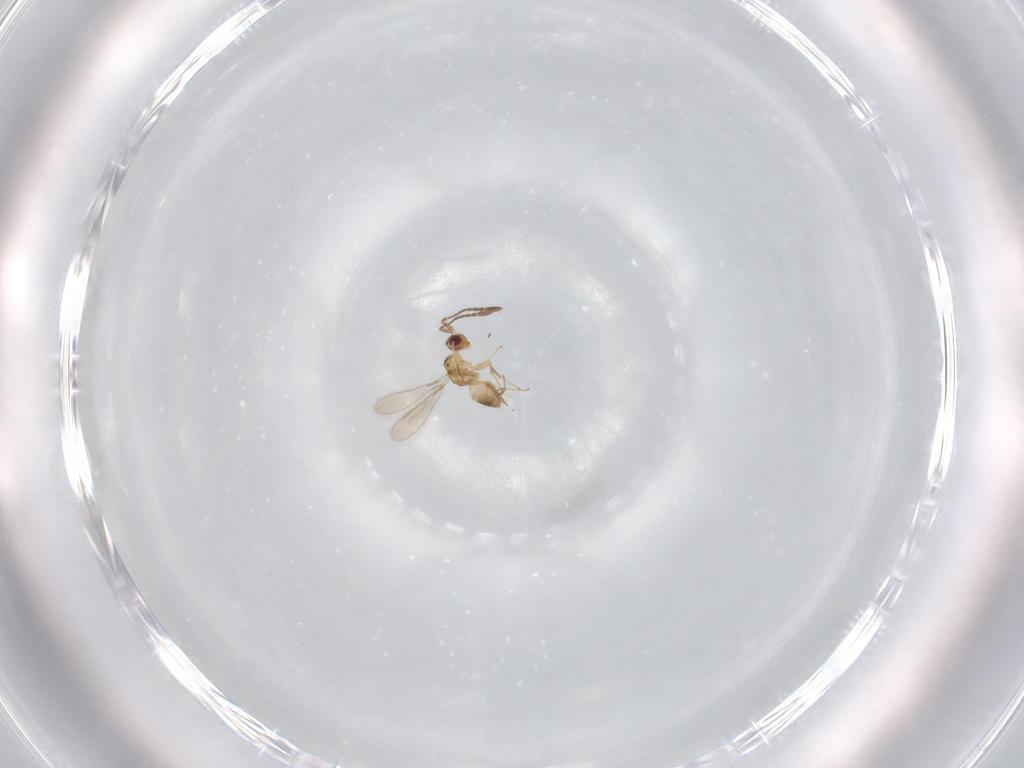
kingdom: Animalia
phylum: Arthropoda
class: Insecta
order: Hymenoptera
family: Mymaridae
